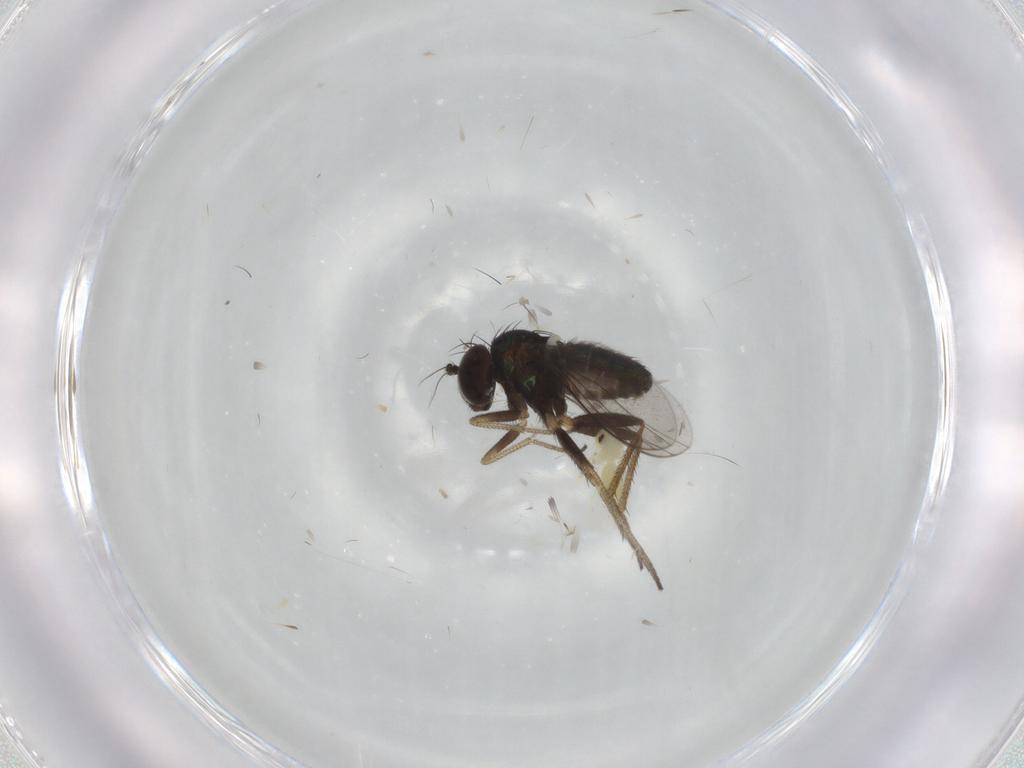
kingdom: Animalia
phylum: Arthropoda
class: Insecta
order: Diptera
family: Ceratopogonidae
